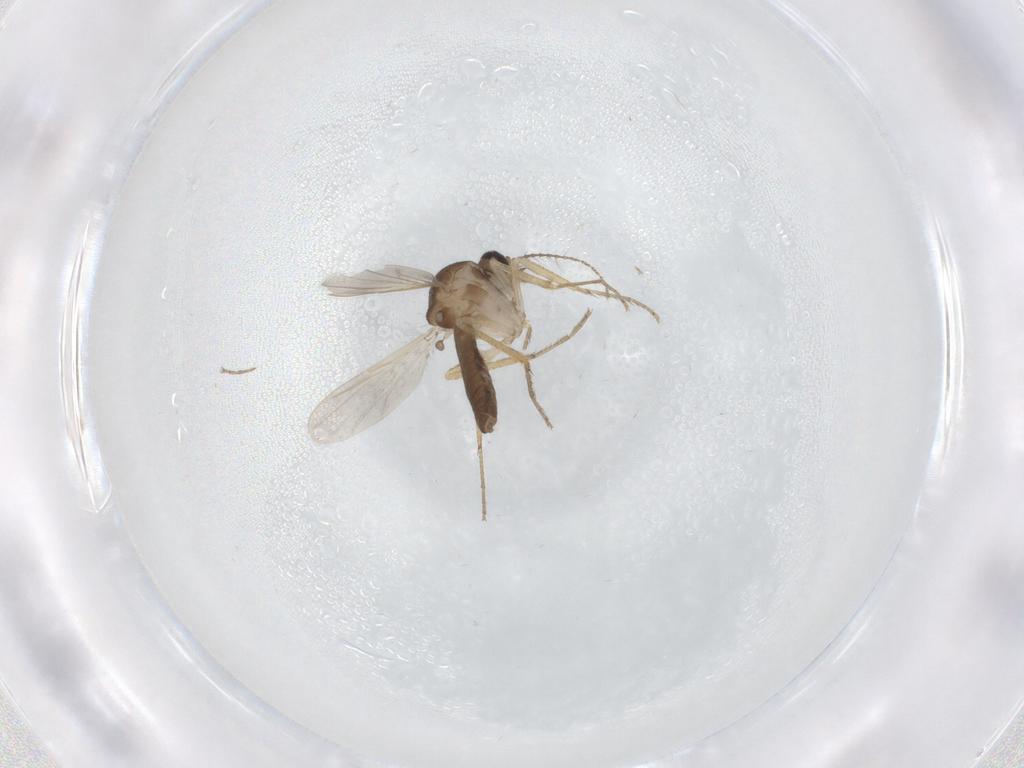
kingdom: Animalia
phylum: Arthropoda
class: Insecta
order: Diptera
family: Ceratopogonidae
